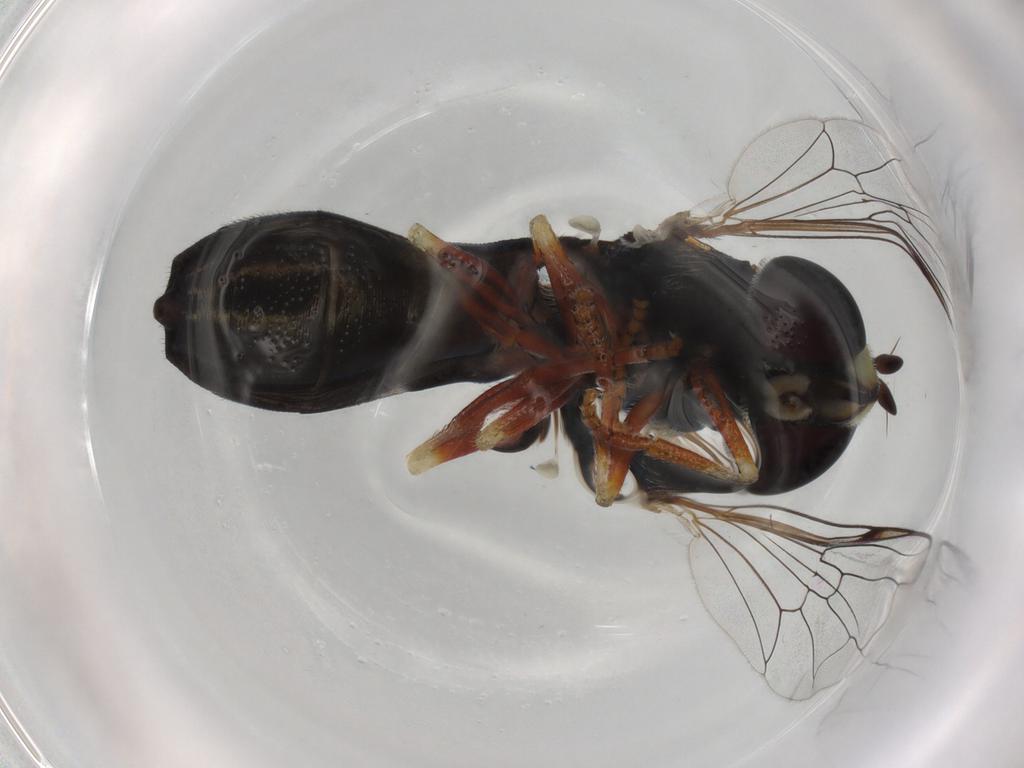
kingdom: Animalia
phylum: Arthropoda
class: Insecta
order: Diptera
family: Syrphidae
